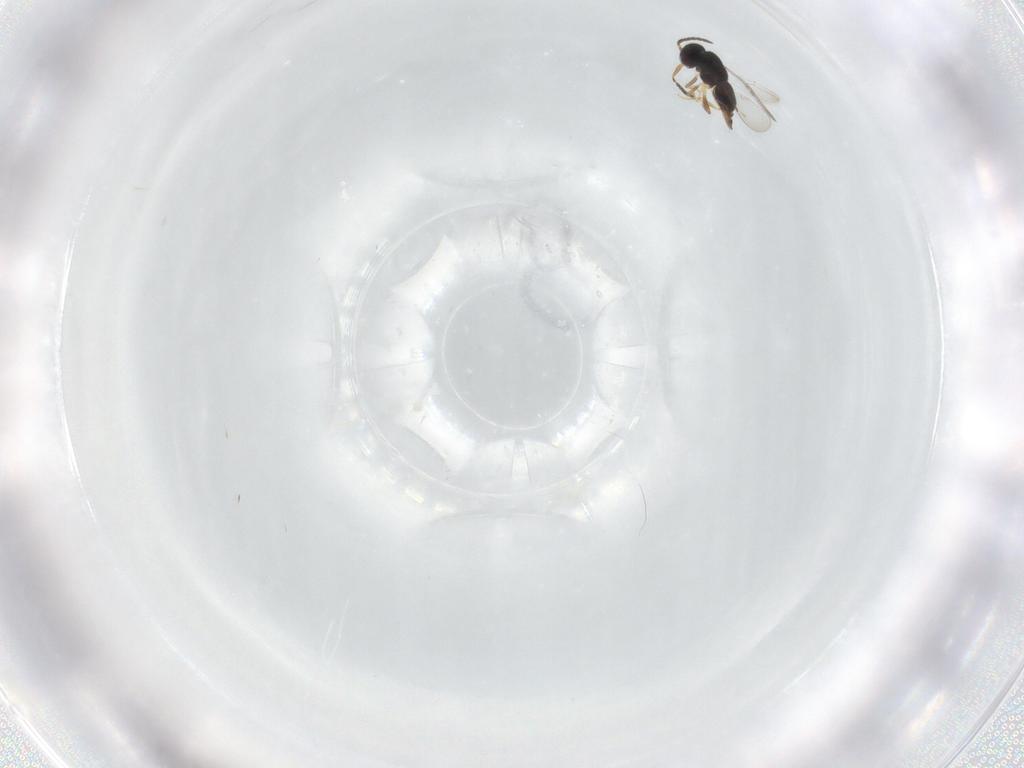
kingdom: Animalia
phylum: Arthropoda
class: Insecta
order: Hymenoptera
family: Ceraphronidae
